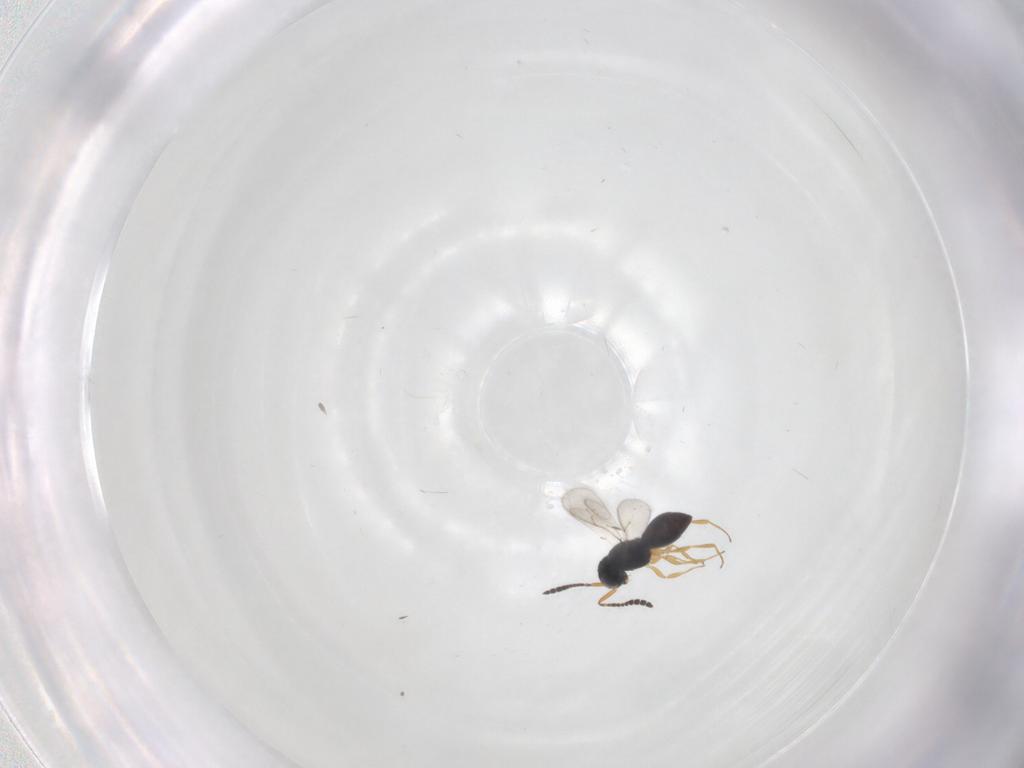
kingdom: Animalia
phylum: Arthropoda
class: Insecta
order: Hymenoptera
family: Scelionidae
